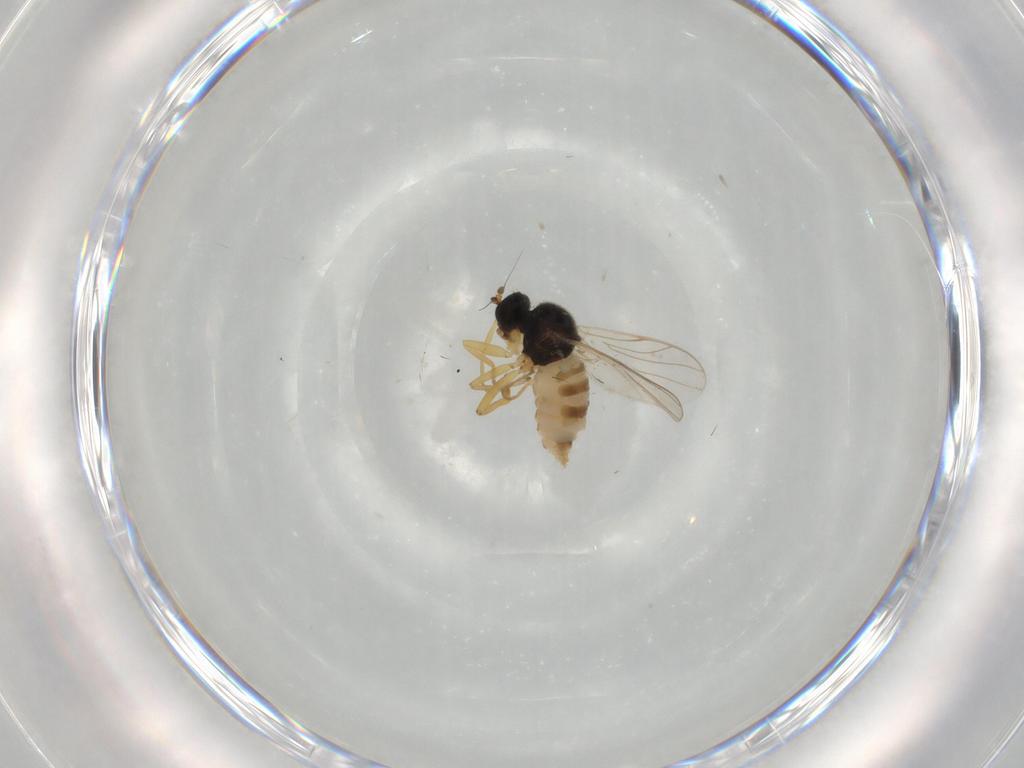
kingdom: Animalia
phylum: Arthropoda
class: Insecta
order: Diptera
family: Hybotidae
